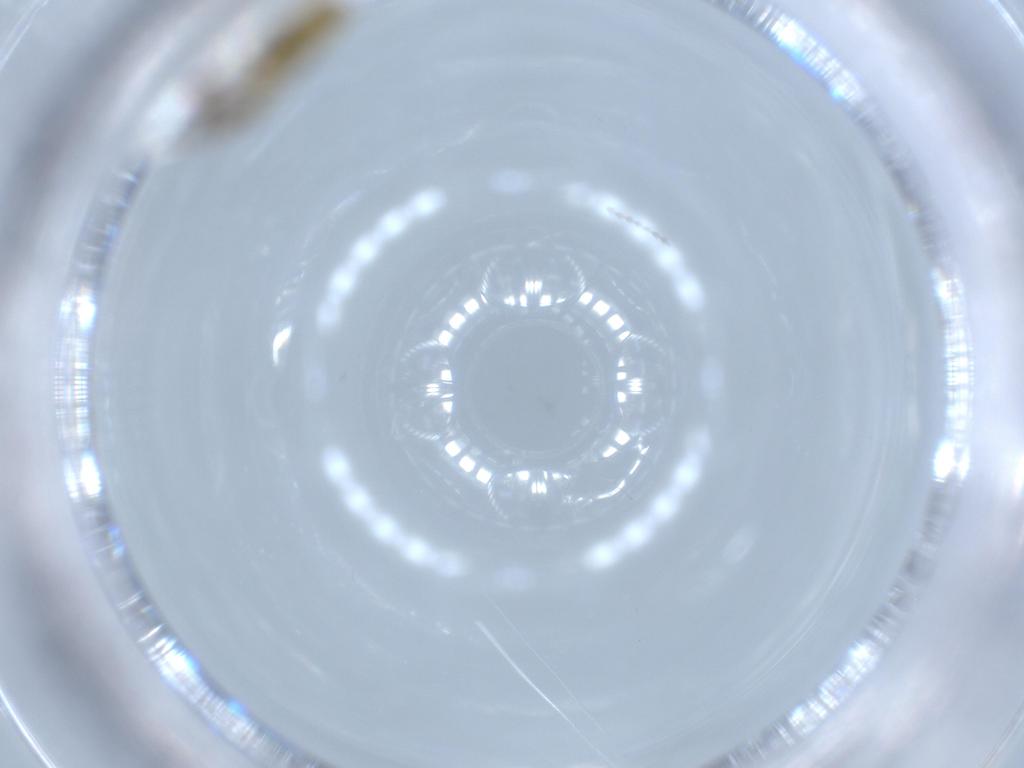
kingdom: Animalia
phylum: Arthropoda
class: Insecta
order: Diptera
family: Chironomidae
